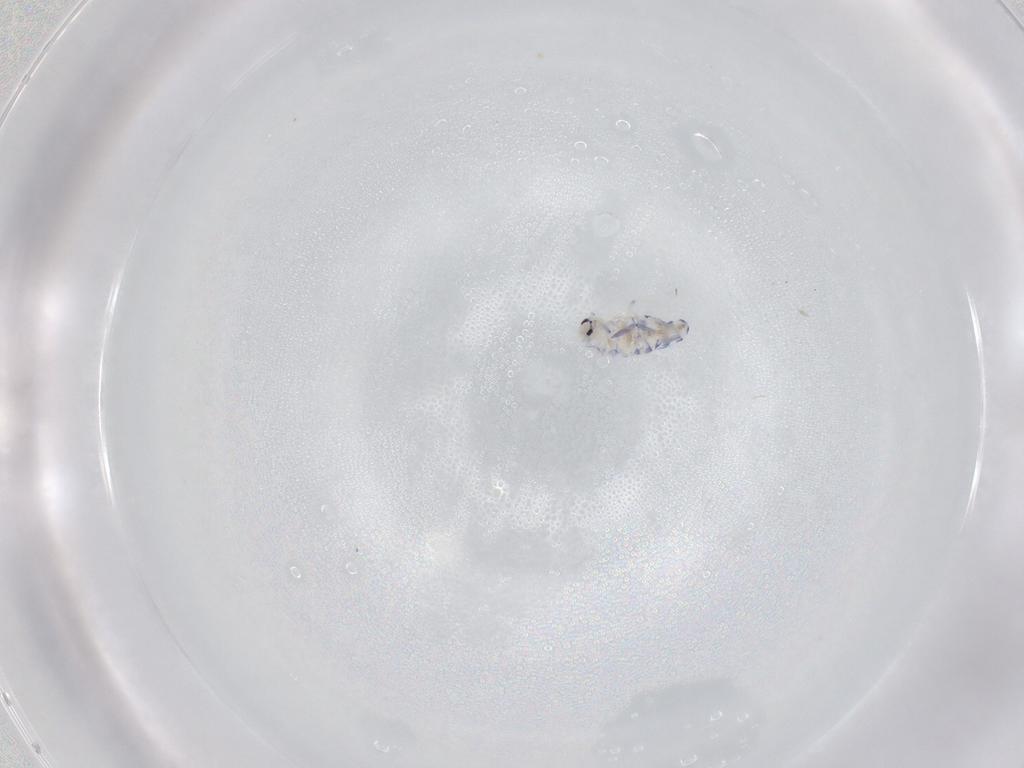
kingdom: Animalia
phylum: Arthropoda
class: Collembola
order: Entomobryomorpha
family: Entomobryidae
